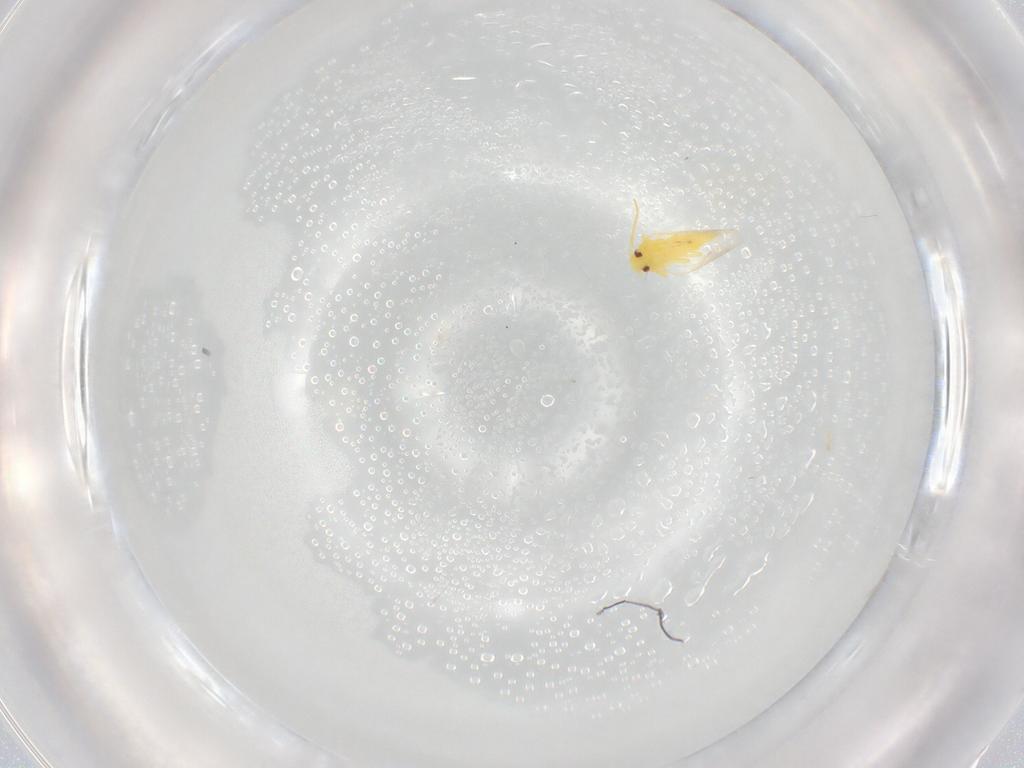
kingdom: Animalia
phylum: Arthropoda
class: Insecta
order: Hemiptera
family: Aleyrodidae
